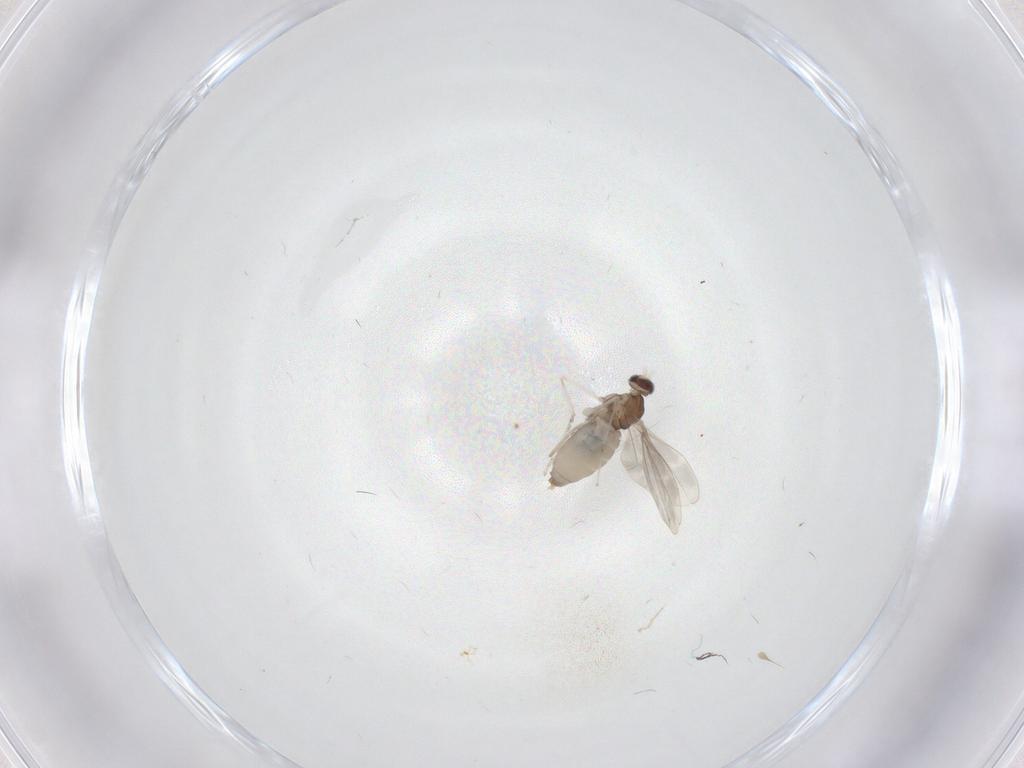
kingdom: Animalia
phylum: Arthropoda
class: Insecta
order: Diptera
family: Cecidomyiidae
